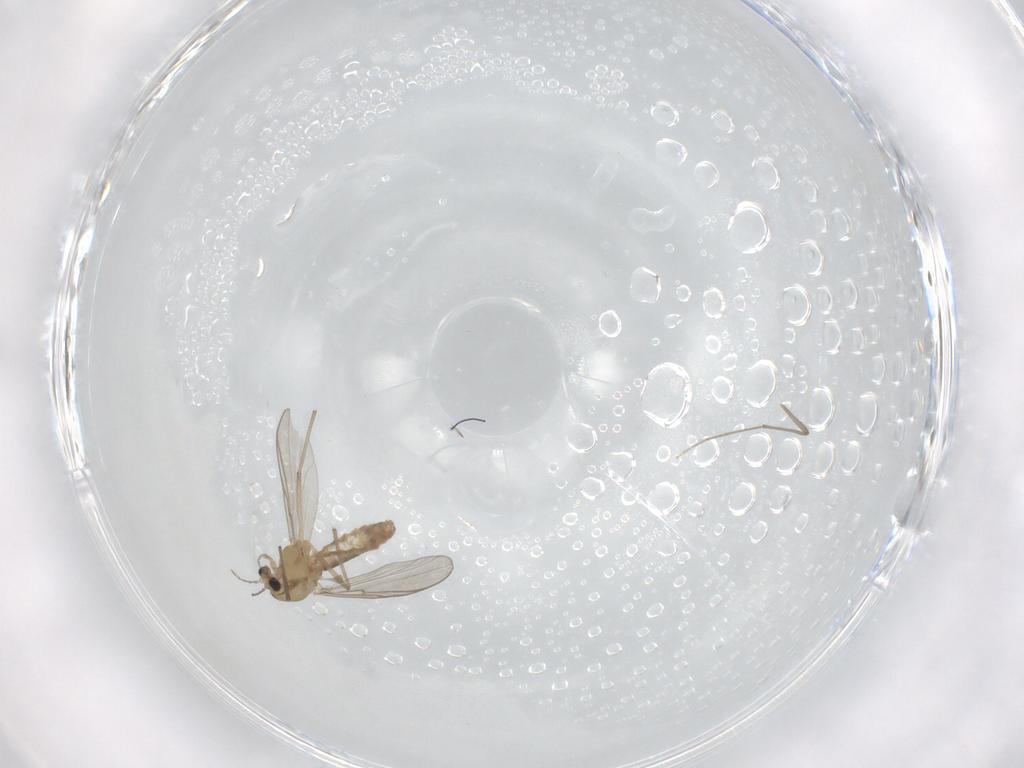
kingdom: Animalia
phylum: Arthropoda
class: Insecta
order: Diptera
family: Chironomidae
